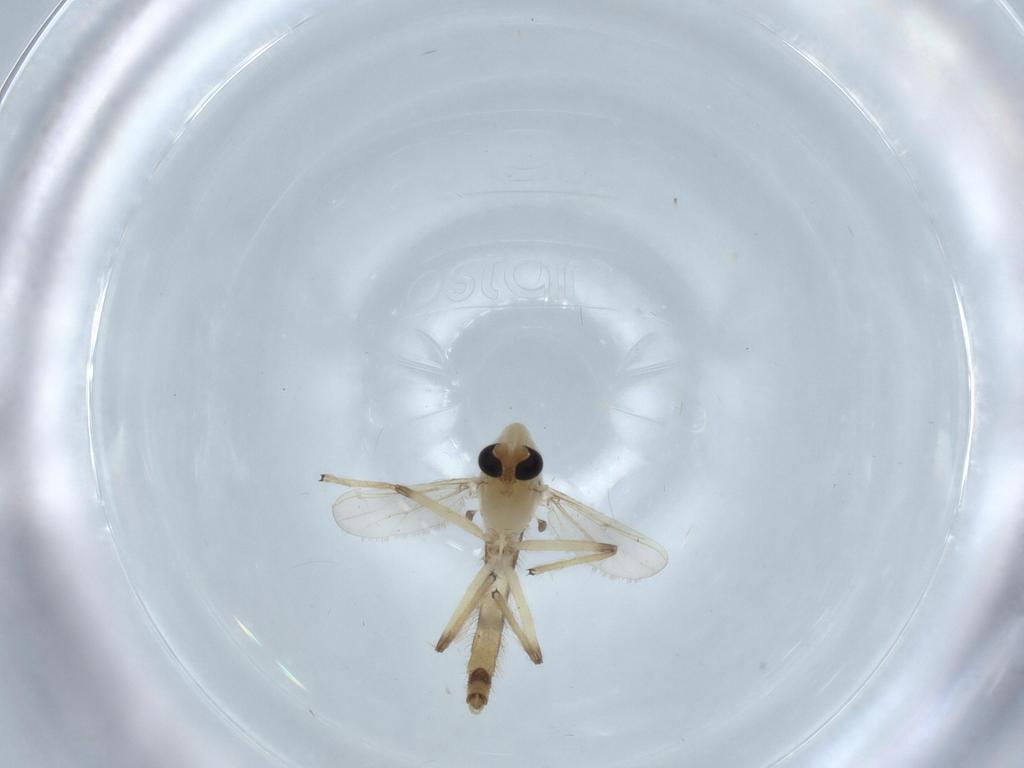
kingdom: Animalia
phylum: Arthropoda
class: Insecta
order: Diptera
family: Chironomidae
